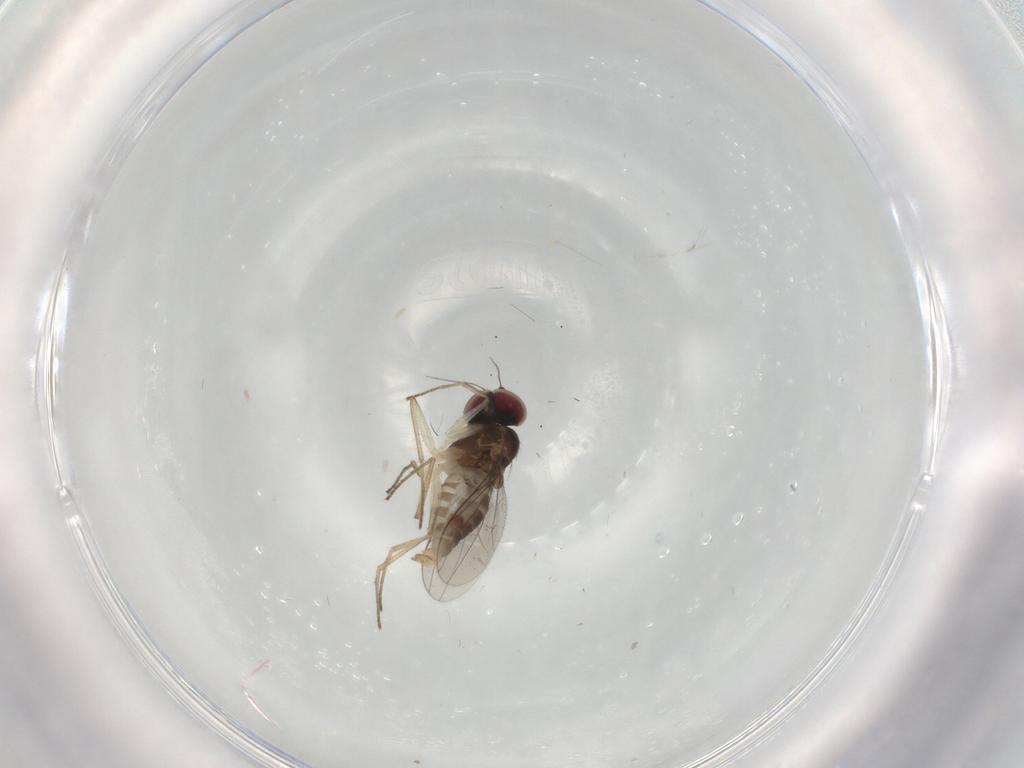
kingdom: Animalia
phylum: Arthropoda
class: Insecta
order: Diptera
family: Dolichopodidae
